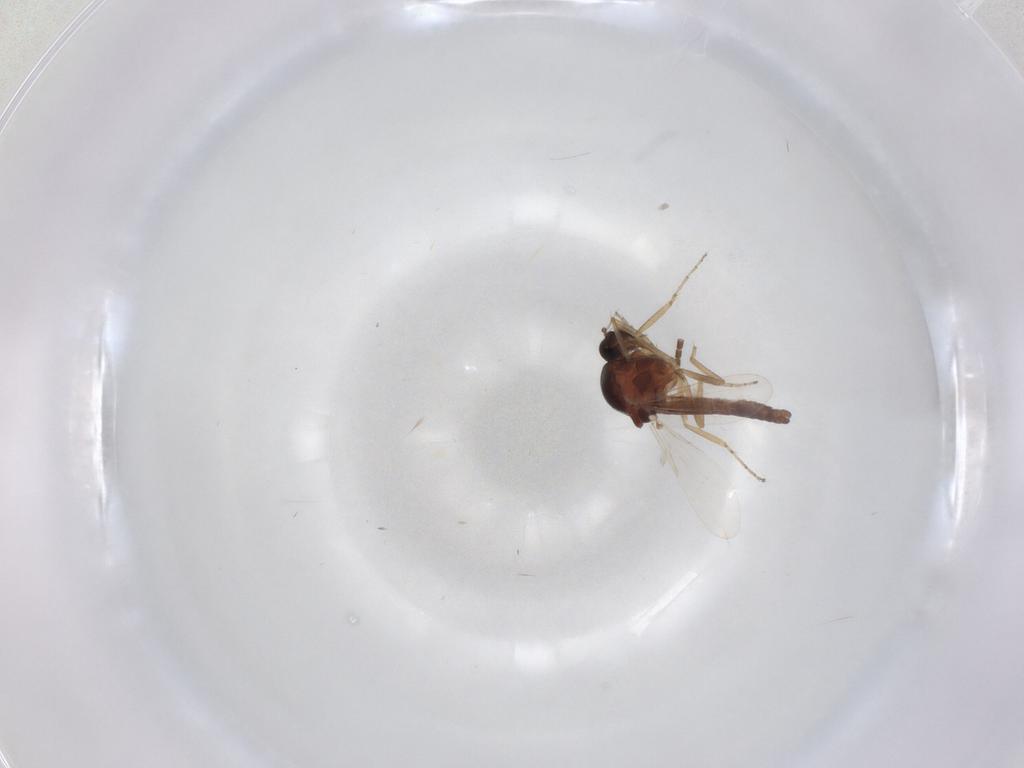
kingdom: Animalia
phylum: Arthropoda
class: Insecta
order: Diptera
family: Ceratopogonidae
